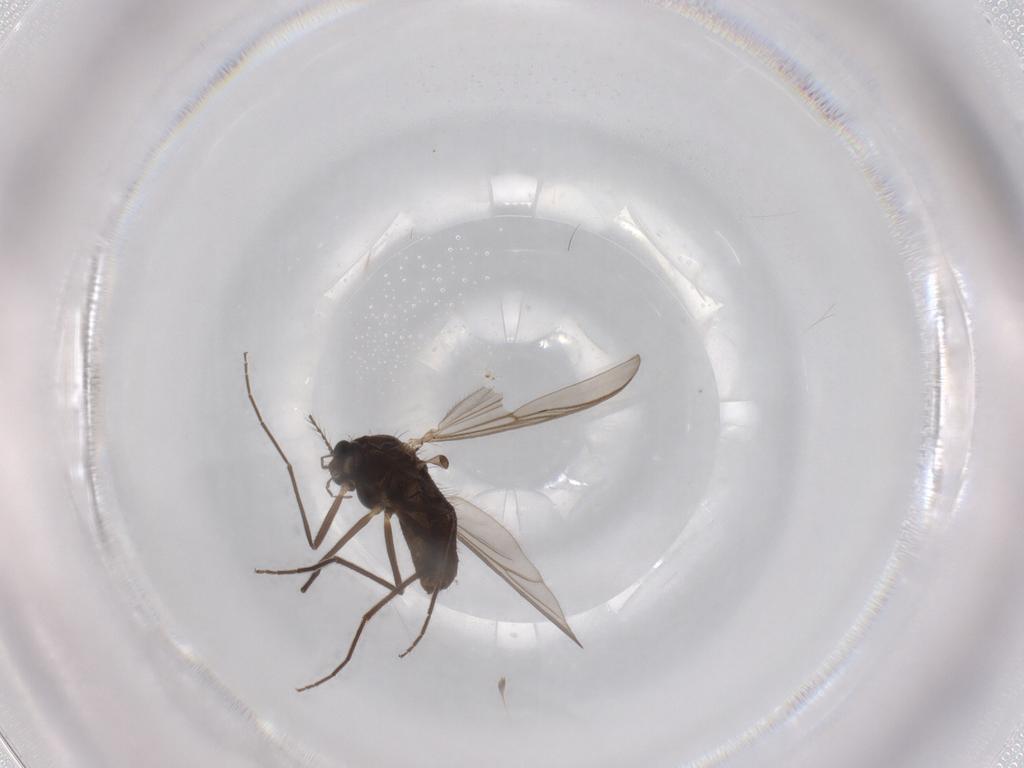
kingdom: Animalia
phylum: Arthropoda
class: Insecta
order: Diptera
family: Chironomidae
